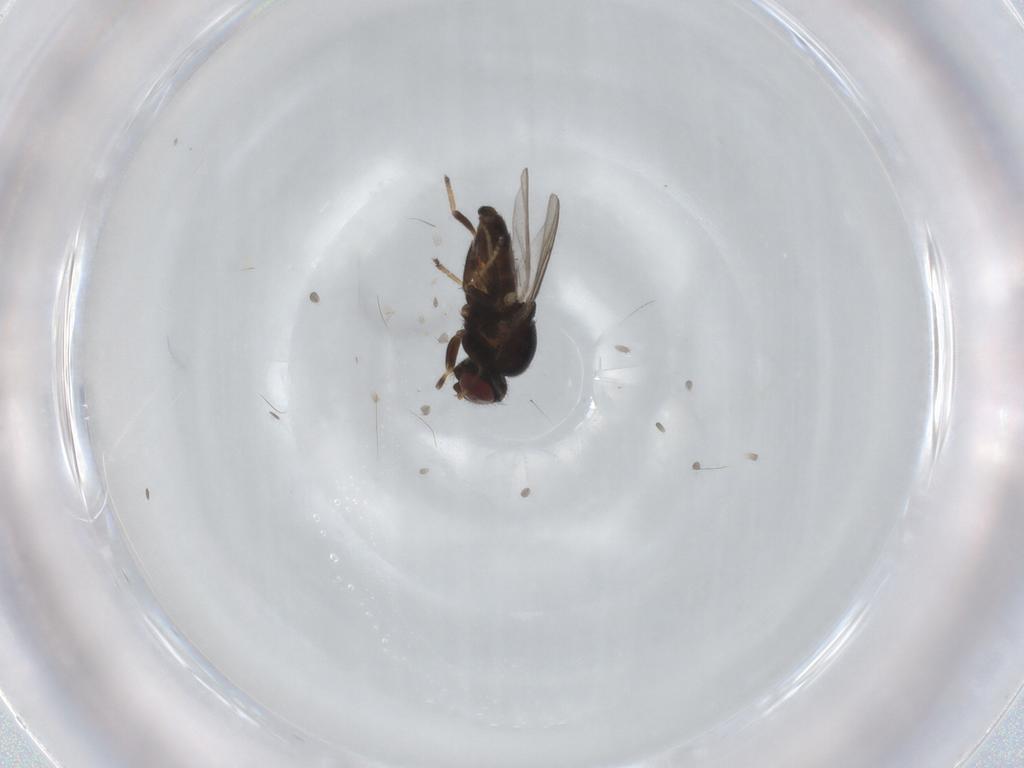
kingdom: Animalia
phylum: Arthropoda
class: Insecta
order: Diptera
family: Chloropidae
